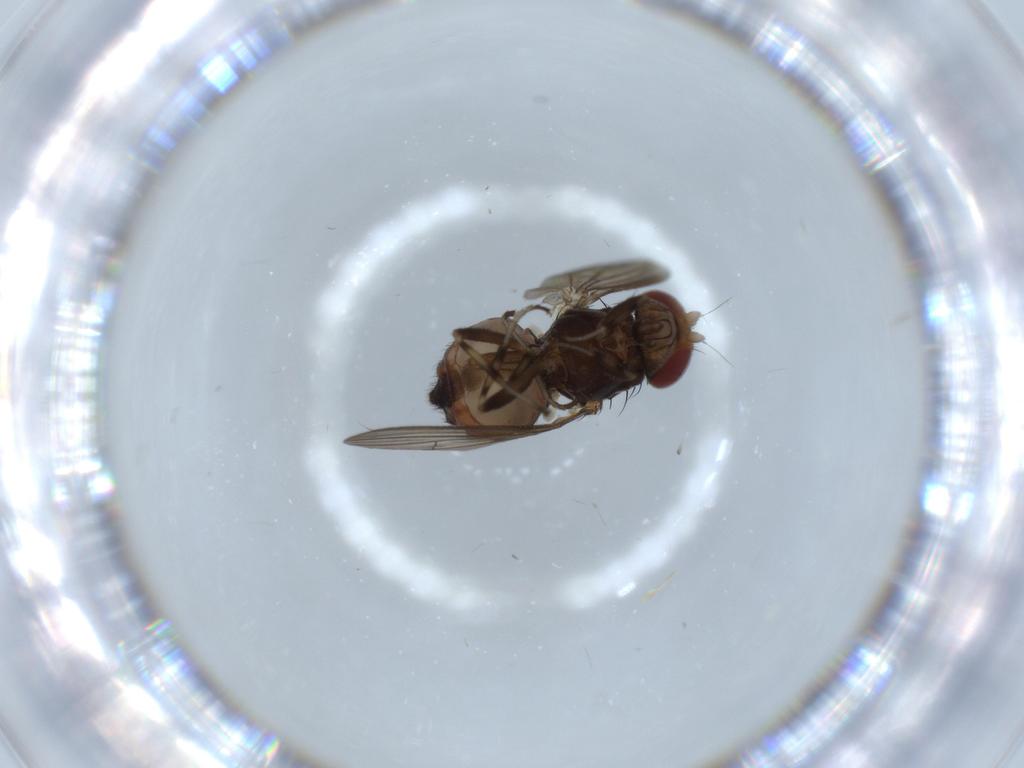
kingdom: Animalia
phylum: Arthropoda
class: Insecta
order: Diptera
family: Heleomyzidae
